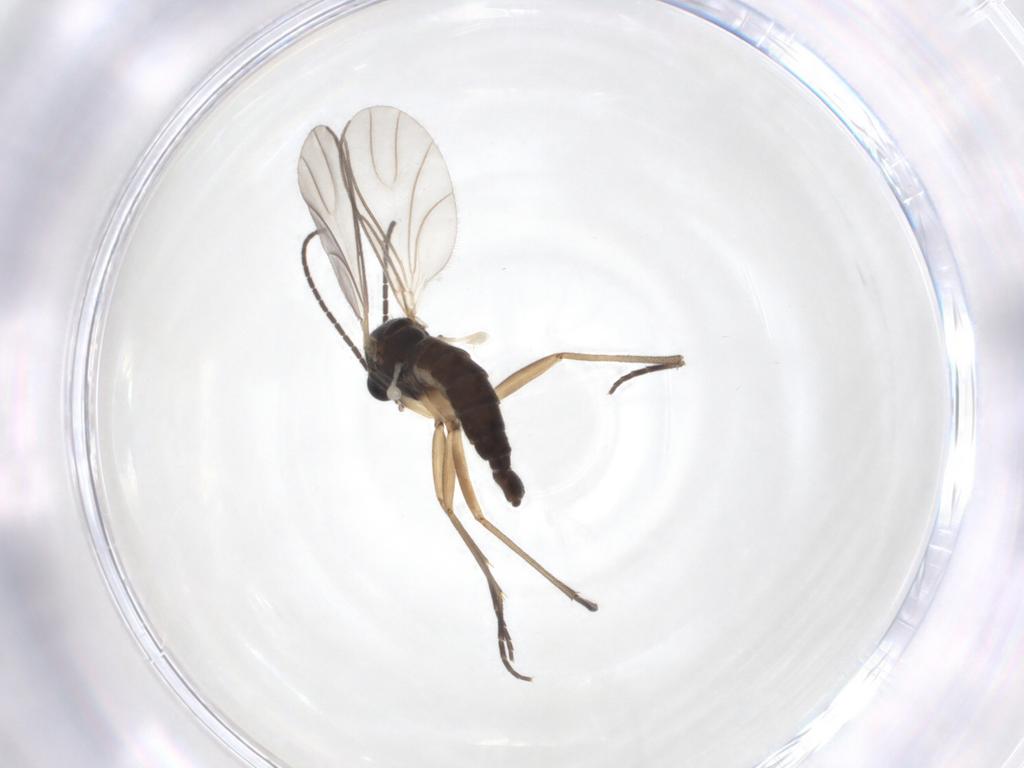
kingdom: Animalia
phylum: Arthropoda
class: Insecta
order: Diptera
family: Sciaridae
